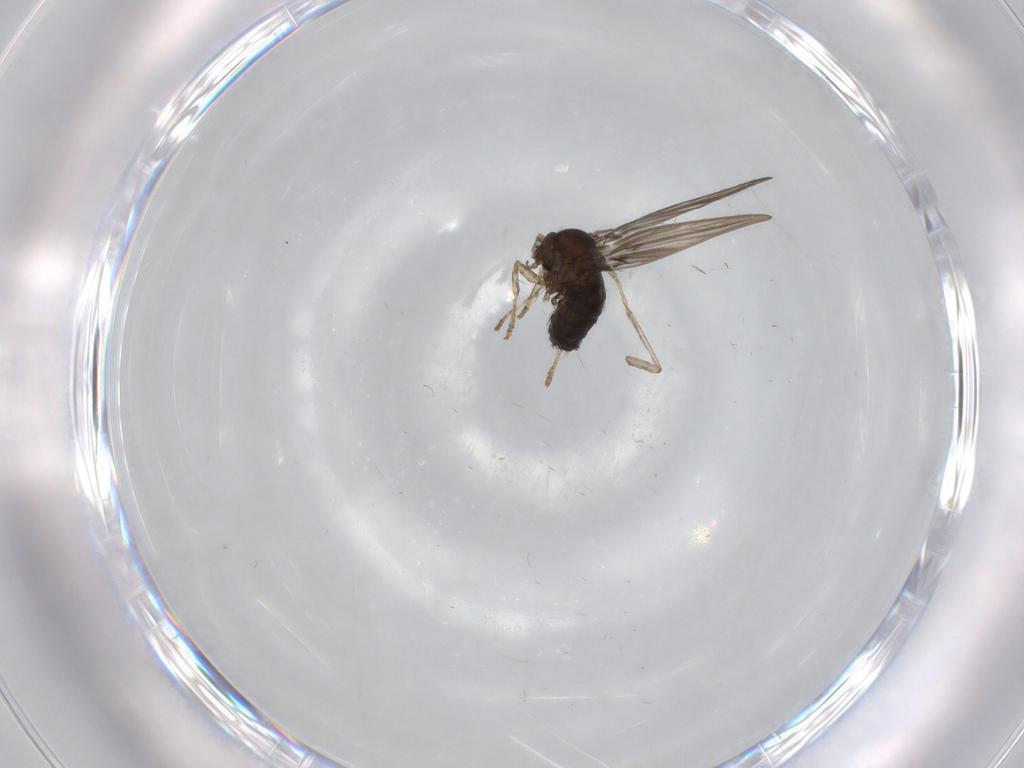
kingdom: Animalia
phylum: Arthropoda
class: Insecta
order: Diptera
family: Psychodidae
